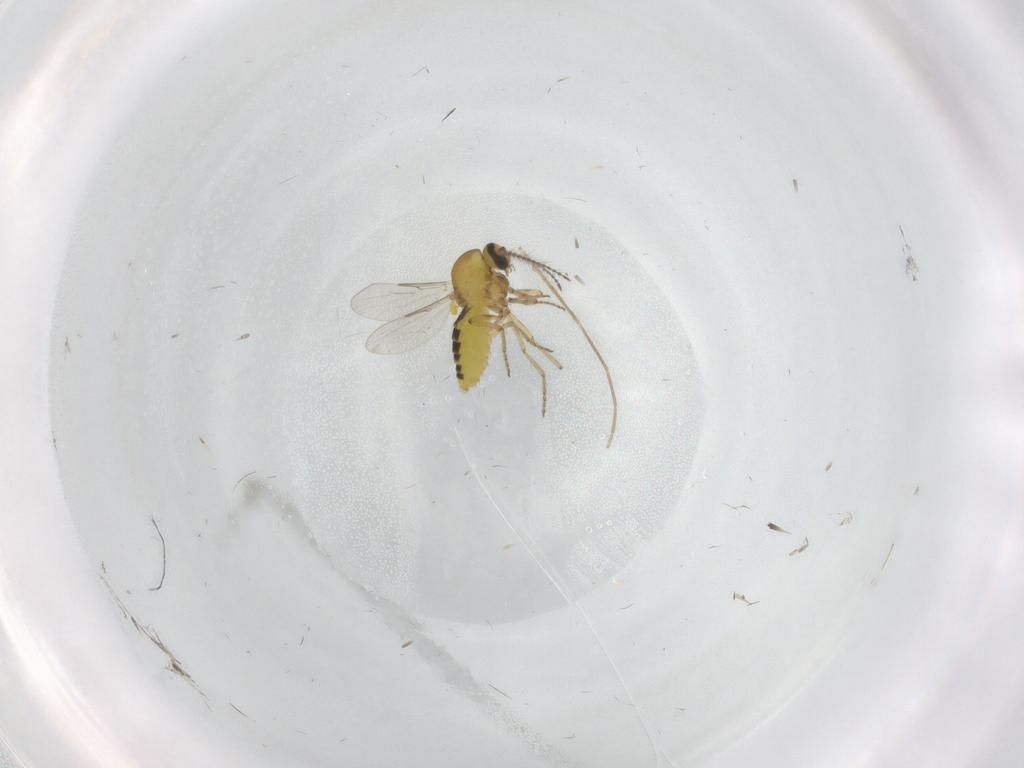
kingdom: Animalia
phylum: Arthropoda
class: Insecta
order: Diptera
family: Chironomidae
